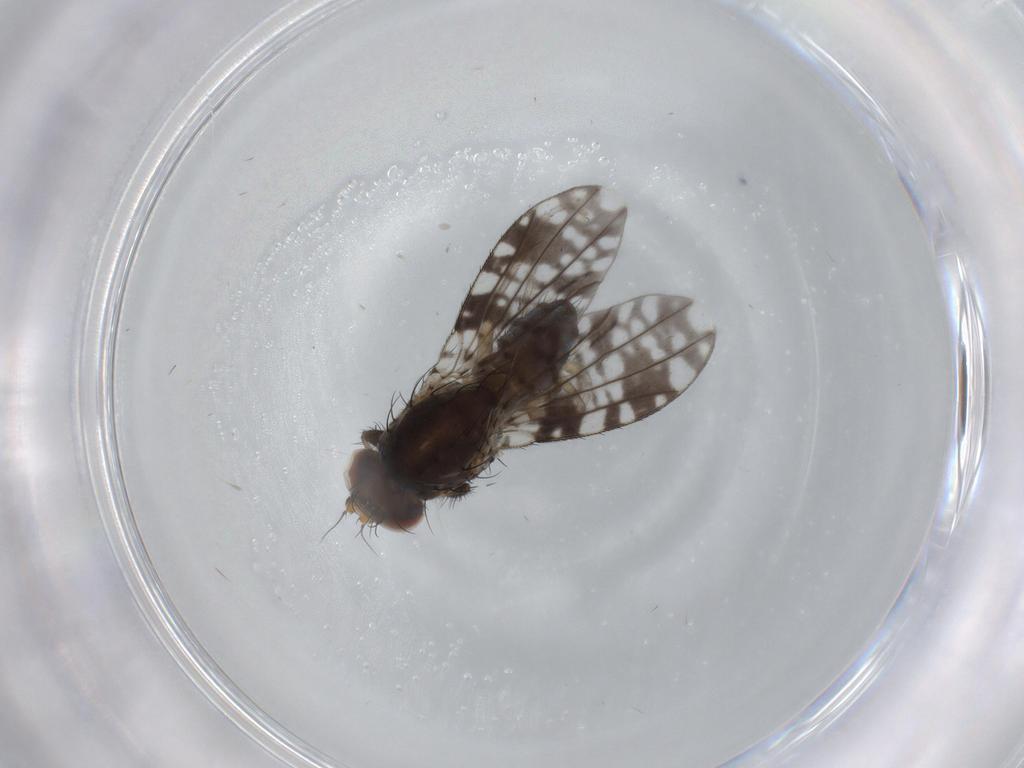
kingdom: Animalia
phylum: Arthropoda
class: Insecta
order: Diptera
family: Tephritidae
